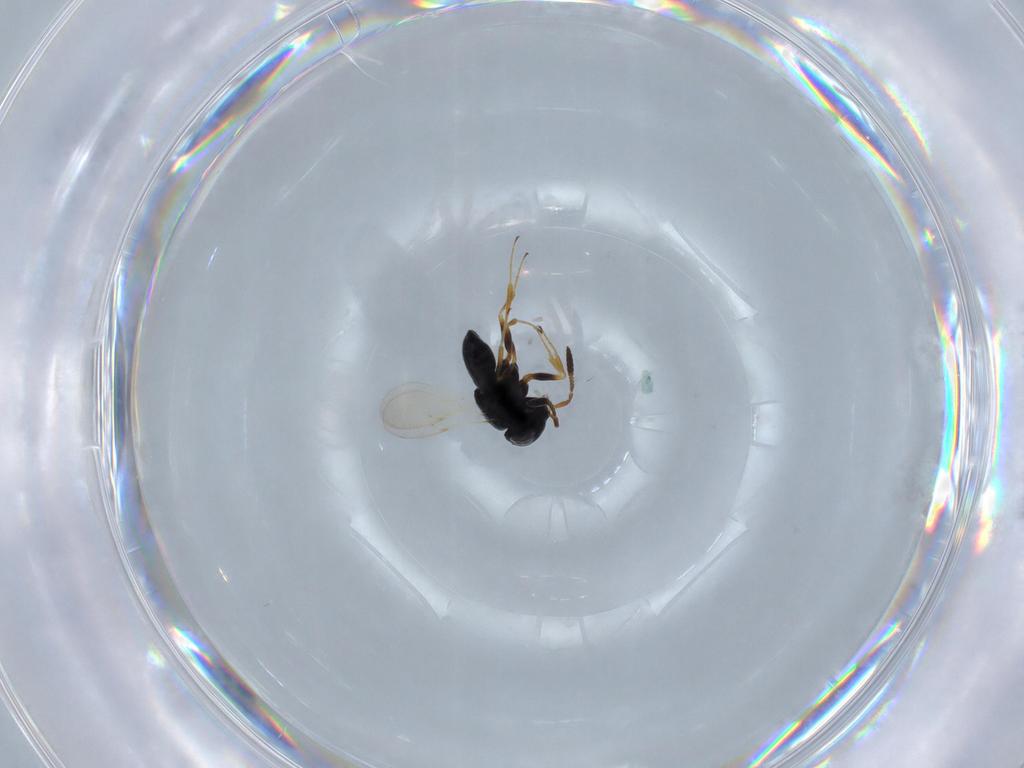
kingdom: Animalia
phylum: Arthropoda
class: Insecta
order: Hymenoptera
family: Scelionidae
